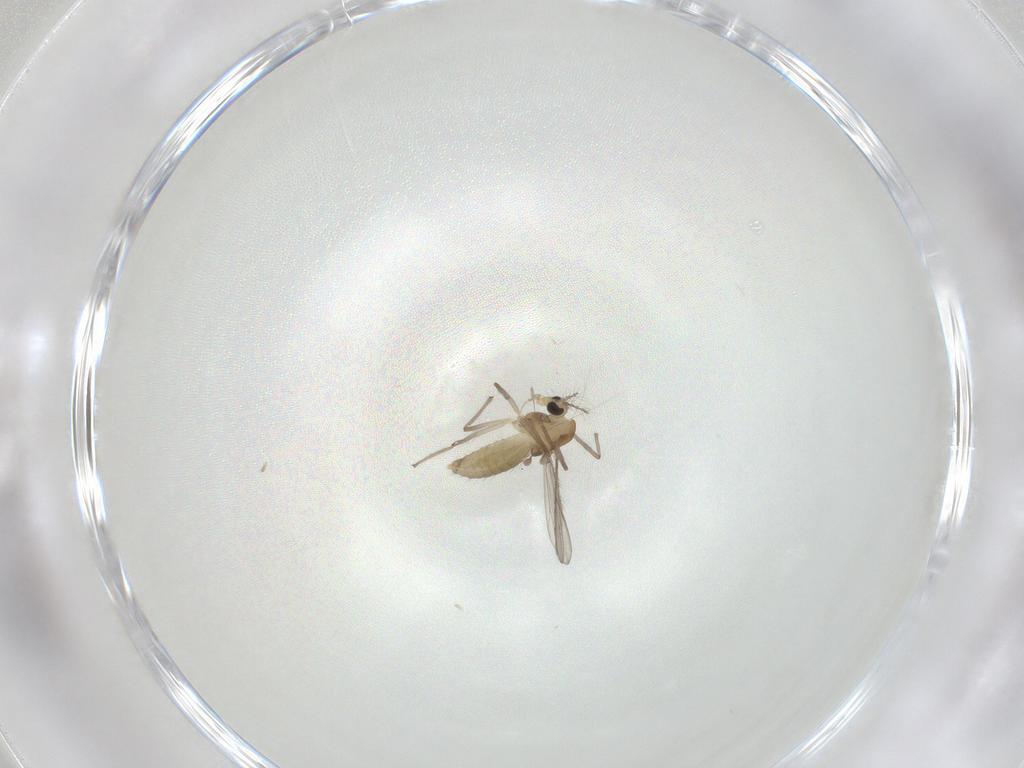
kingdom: Animalia
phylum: Arthropoda
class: Insecta
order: Diptera
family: Chironomidae
